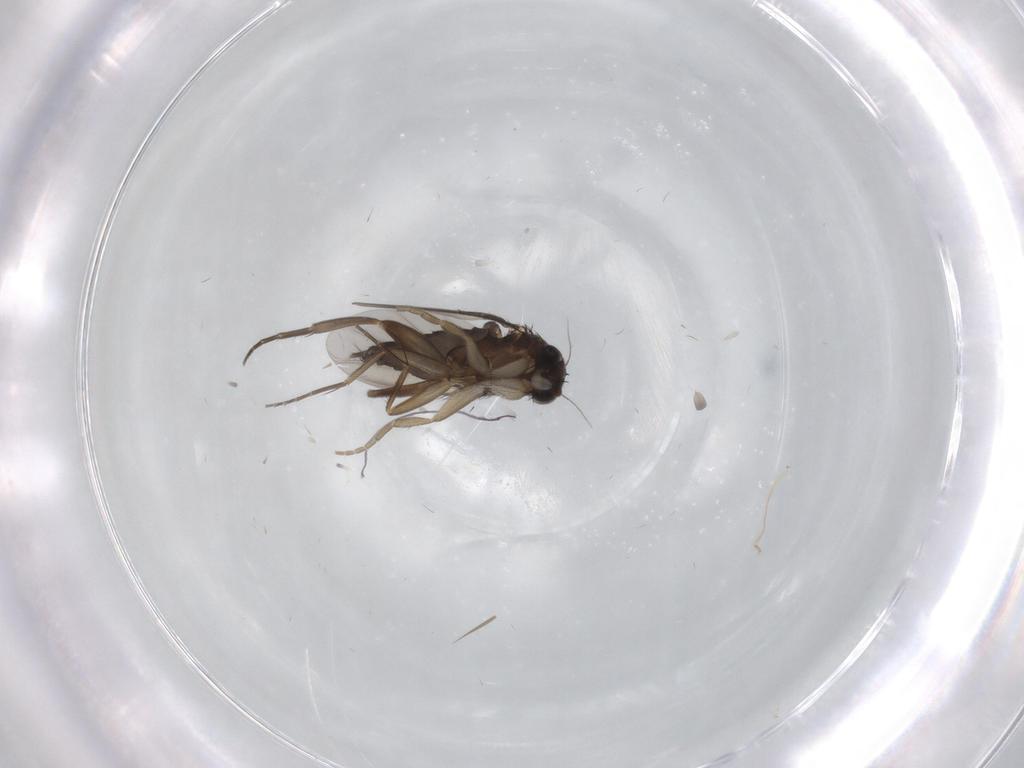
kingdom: Animalia
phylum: Arthropoda
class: Insecta
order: Diptera
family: Phoridae
